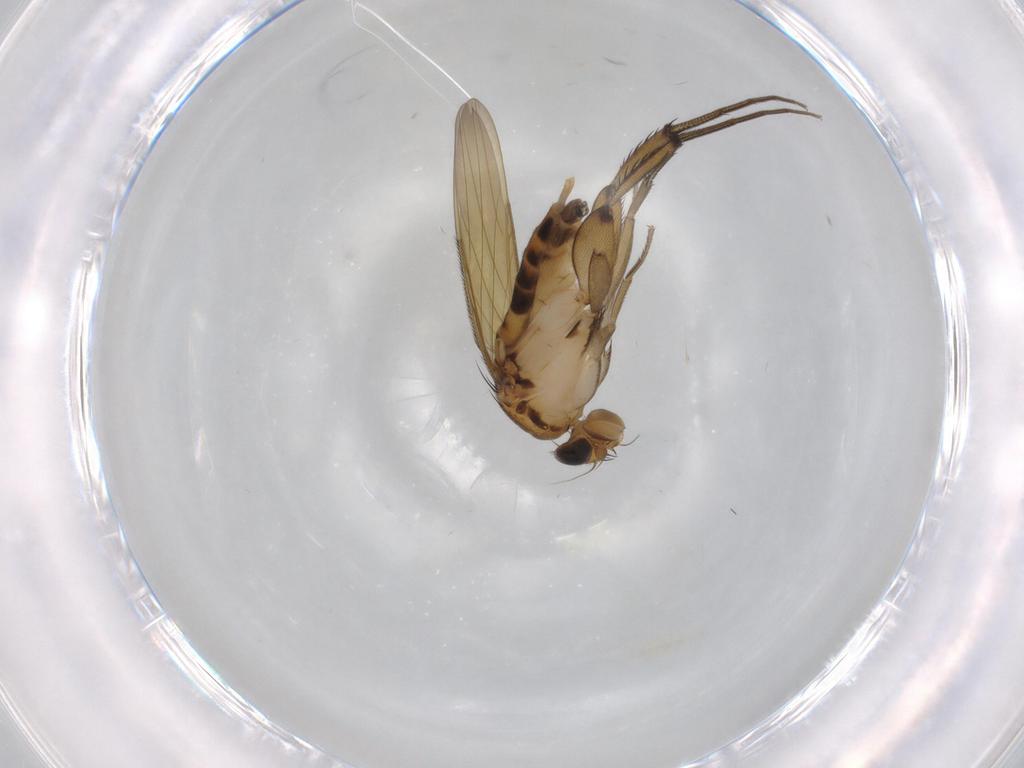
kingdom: Animalia
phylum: Arthropoda
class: Insecta
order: Diptera
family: Phoridae
